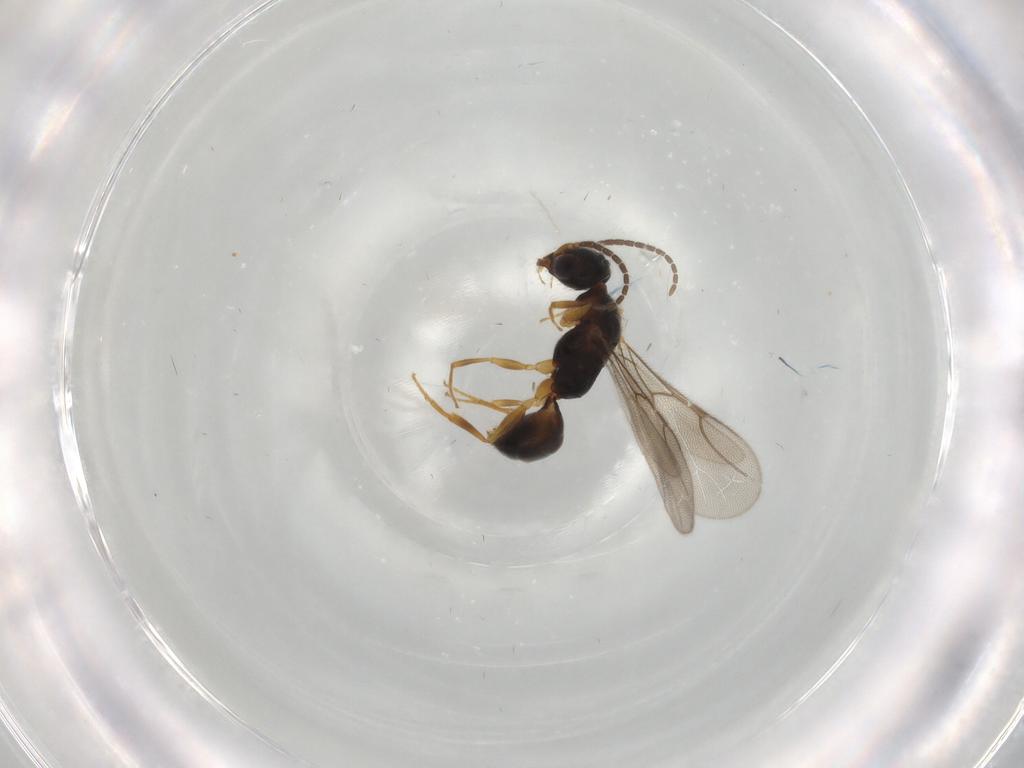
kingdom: Animalia
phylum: Arthropoda
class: Insecta
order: Hymenoptera
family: Bethylidae
